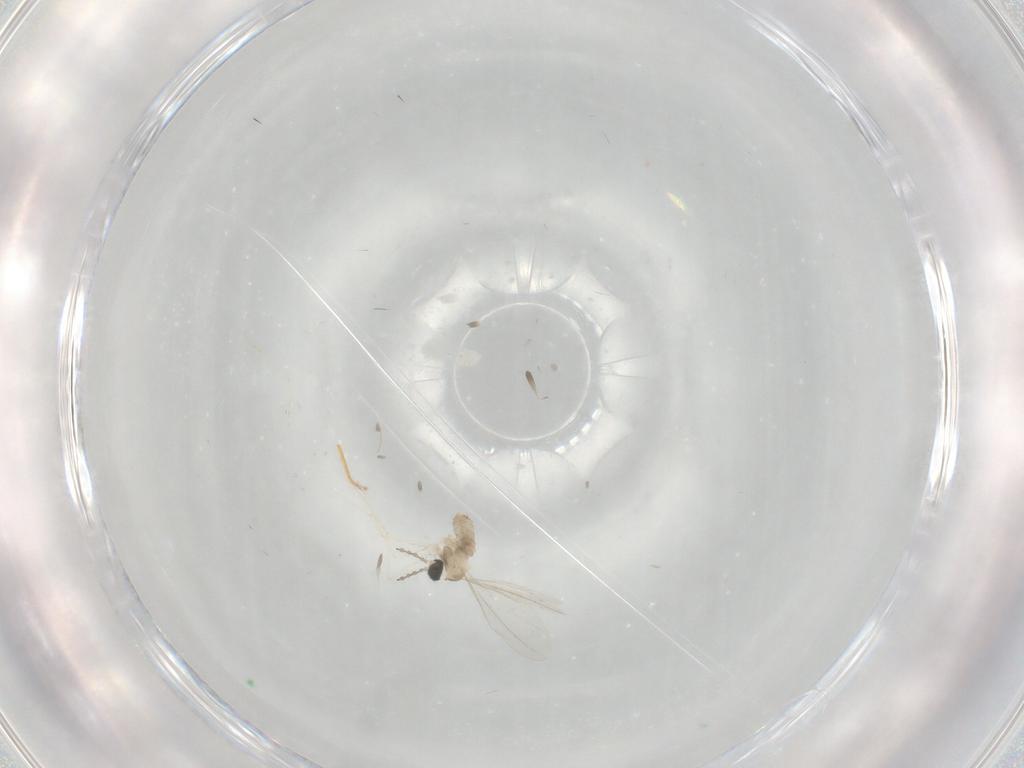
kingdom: Animalia
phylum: Arthropoda
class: Insecta
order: Diptera
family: Cecidomyiidae
